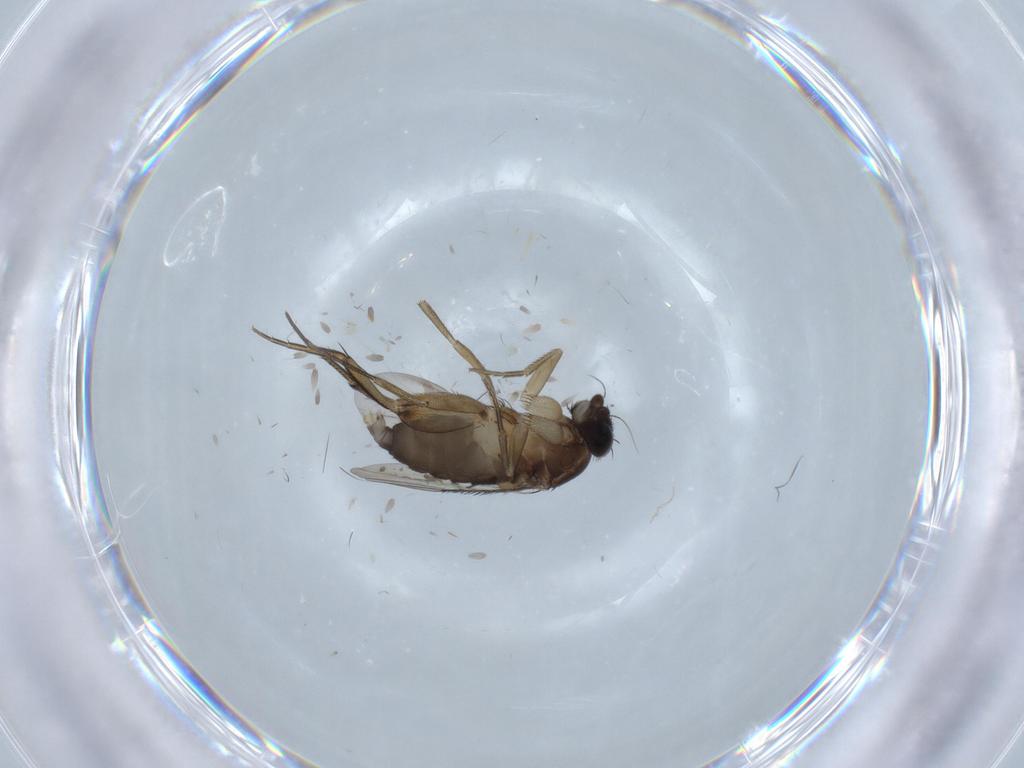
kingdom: Animalia
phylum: Arthropoda
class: Insecta
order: Diptera
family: Phoridae
